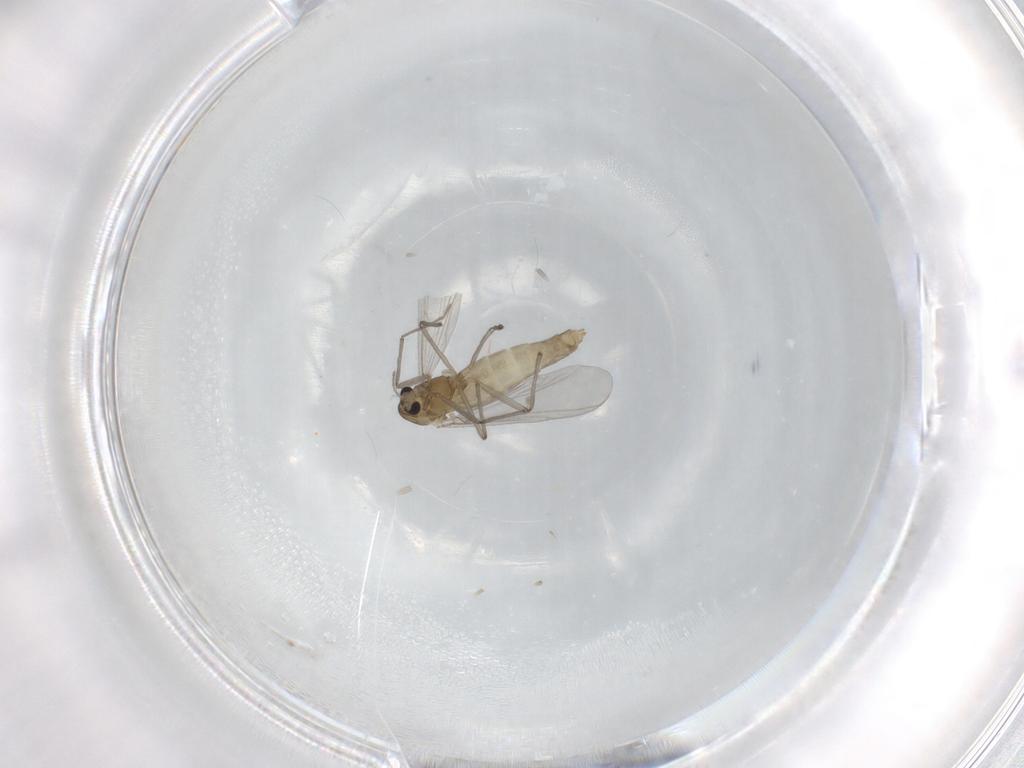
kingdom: Animalia
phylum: Arthropoda
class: Insecta
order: Diptera
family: Chironomidae
